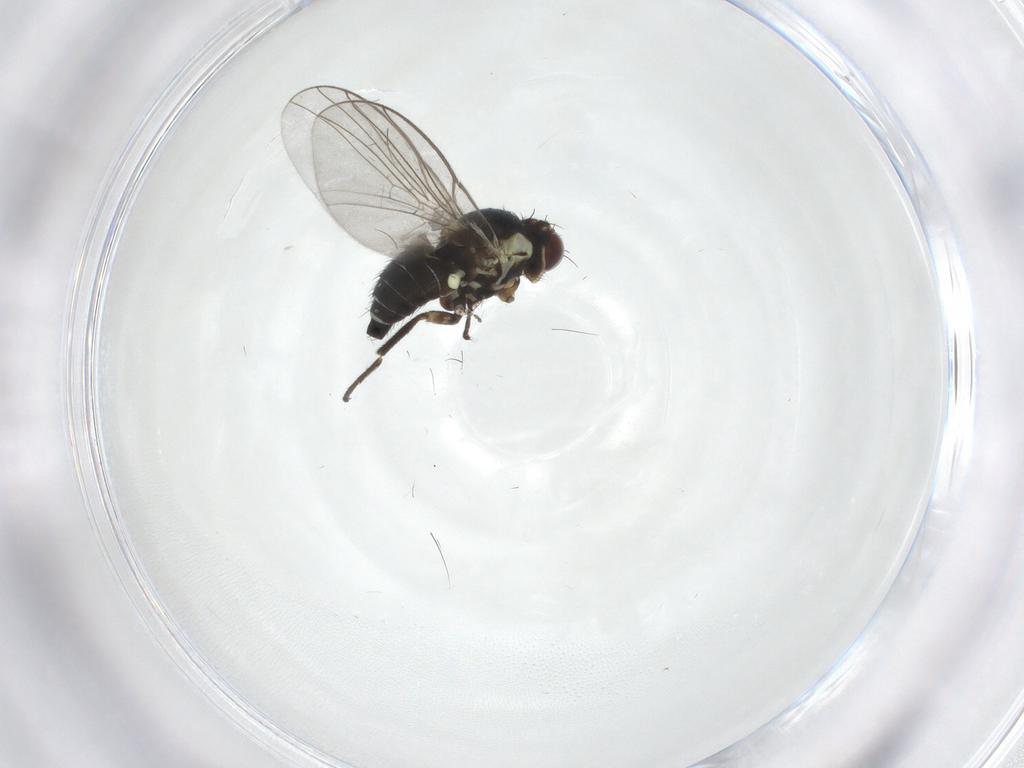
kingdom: Animalia
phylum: Arthropoda
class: Insecta
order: Diptera
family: Agromyzidae
